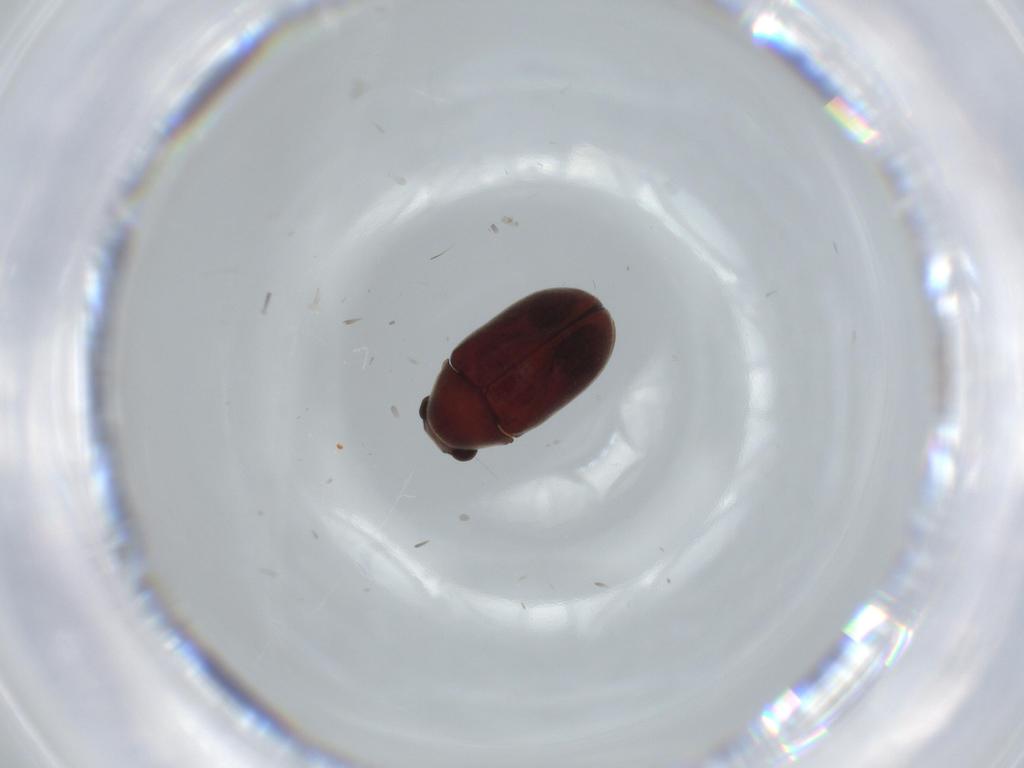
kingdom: Animalia
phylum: Arthropoda
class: Insecta
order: Coleoptera
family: Ptinidae
